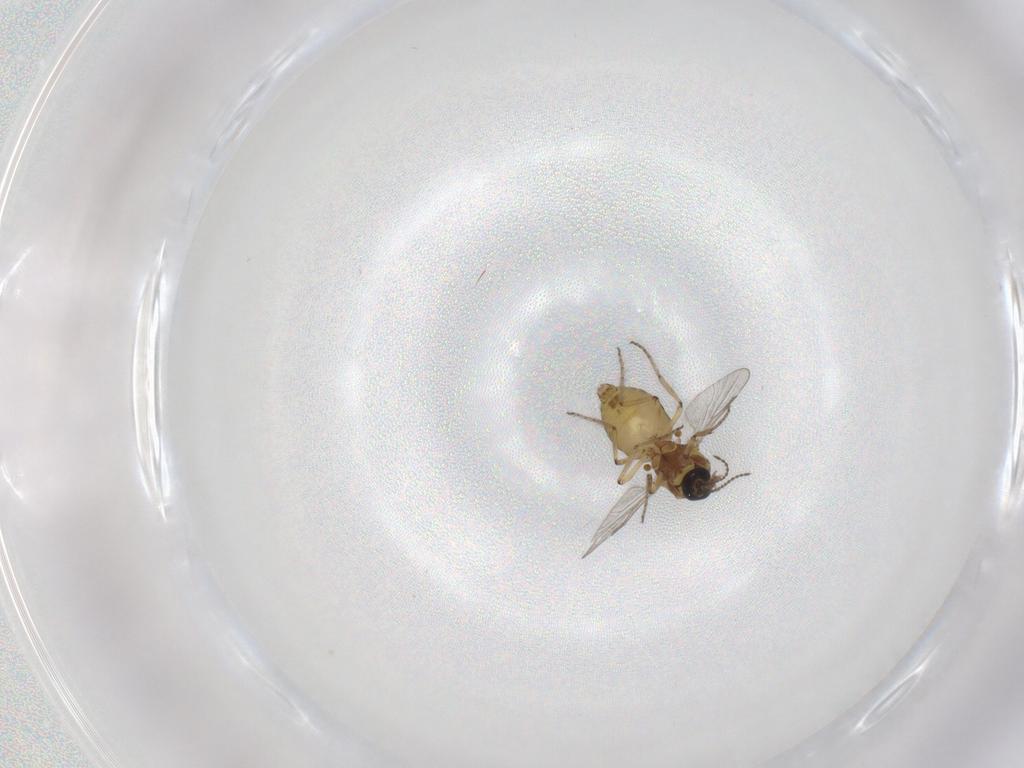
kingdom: Animalia
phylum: Arthropoda
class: Insecta
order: Diptera
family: Ceratopogonidae
